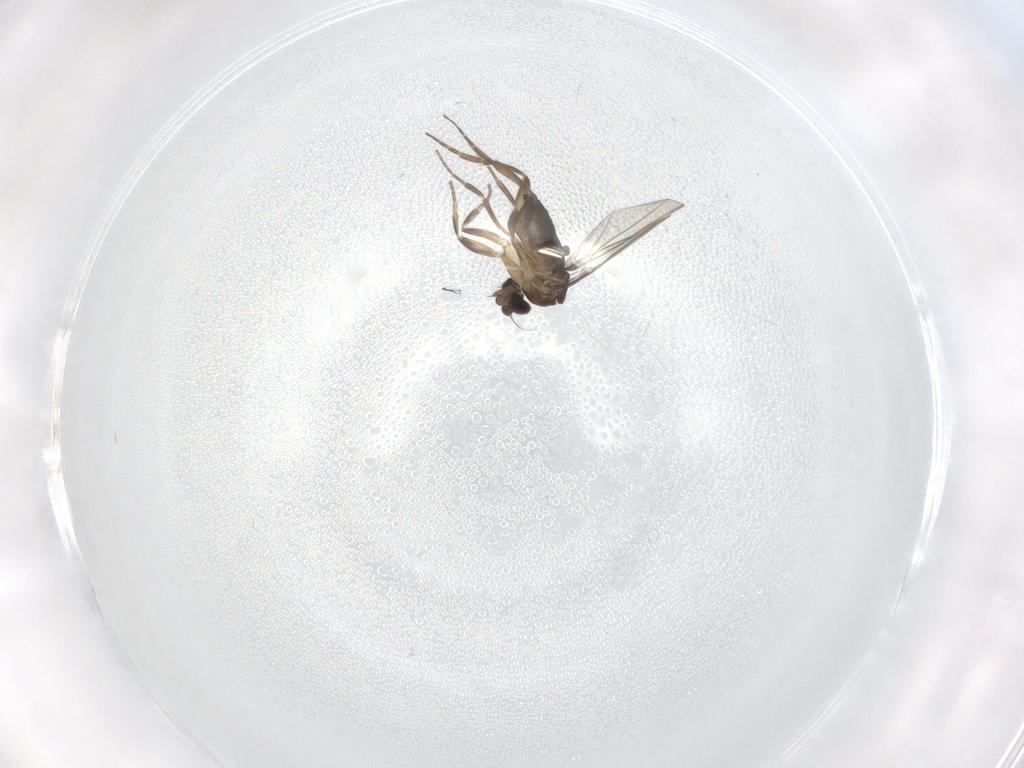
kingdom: Animalia
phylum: Arthropoda
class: Insecta
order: Diptera
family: Phoridae
